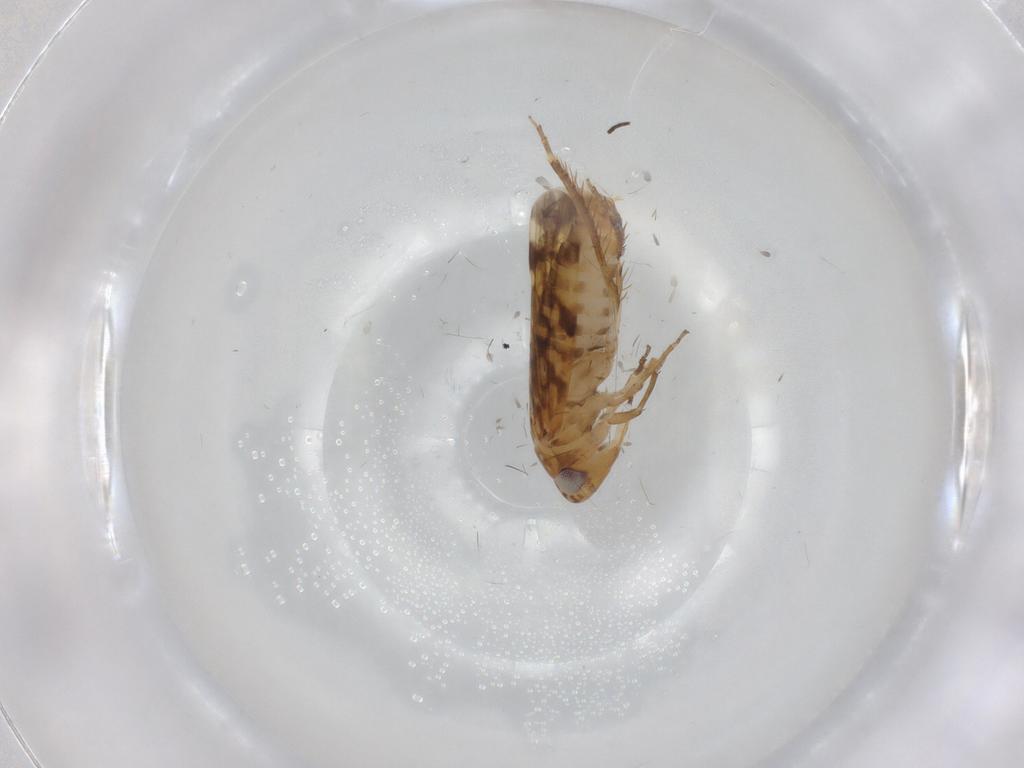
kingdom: Animalia
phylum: Arthropoda
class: Insecta
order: Hemiptera
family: Cicadellidae
